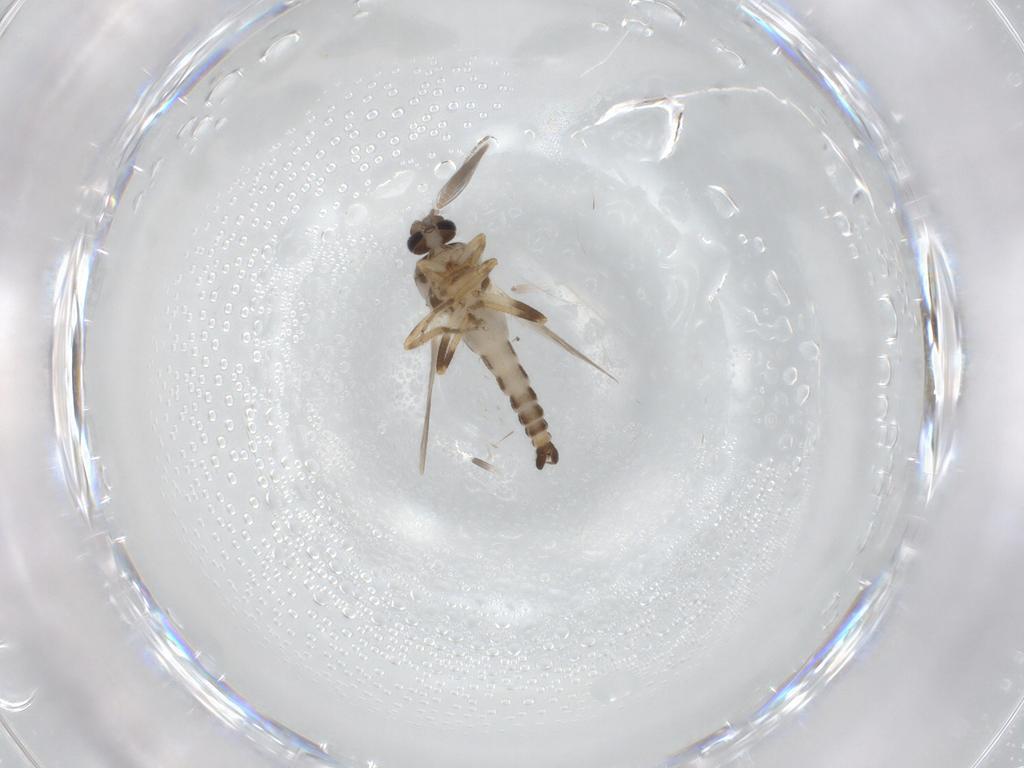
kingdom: Animalia
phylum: Arthropoda
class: Insecta
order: Diptera
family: Ceratopogonidae
